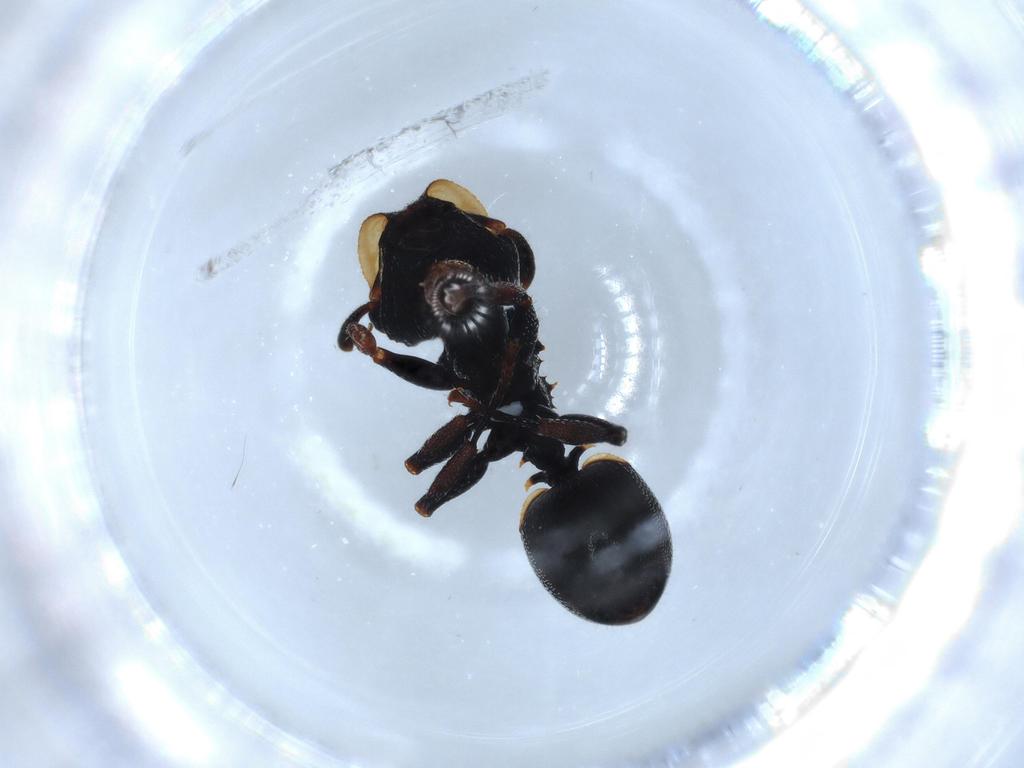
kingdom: Animalia
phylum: Arthropoda
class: Insecta
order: Hymenoptera
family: Formicidae
